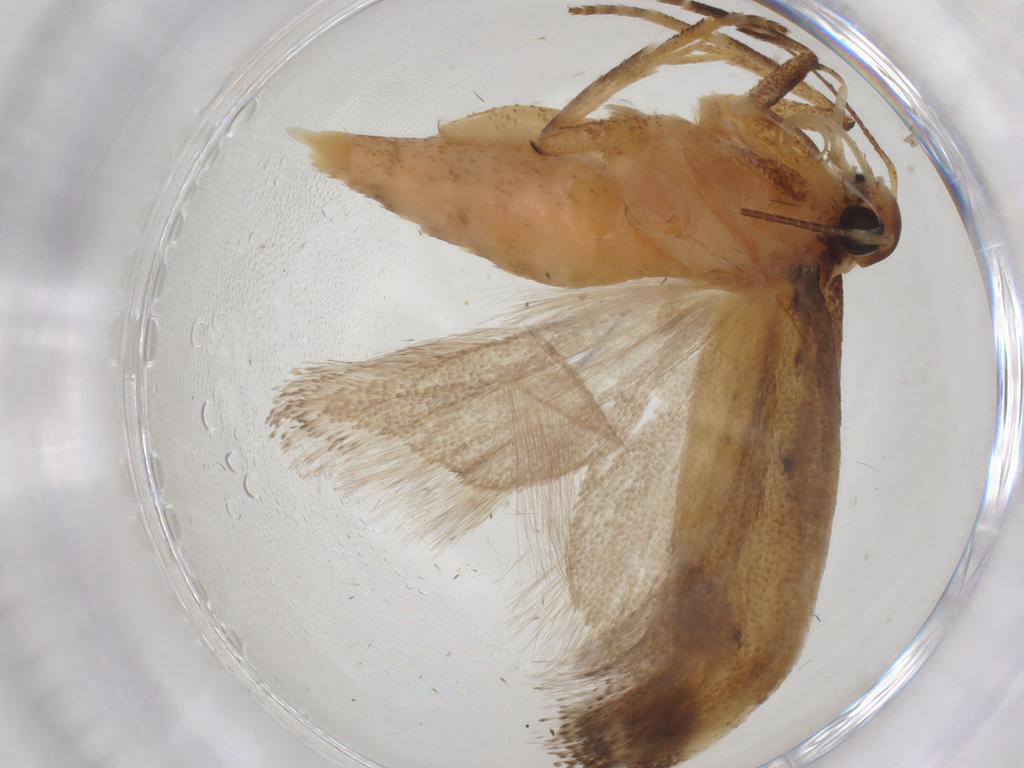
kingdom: Animalia
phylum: Arthropoda
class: Insecta
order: Lepidoptera
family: Gelechiidae
